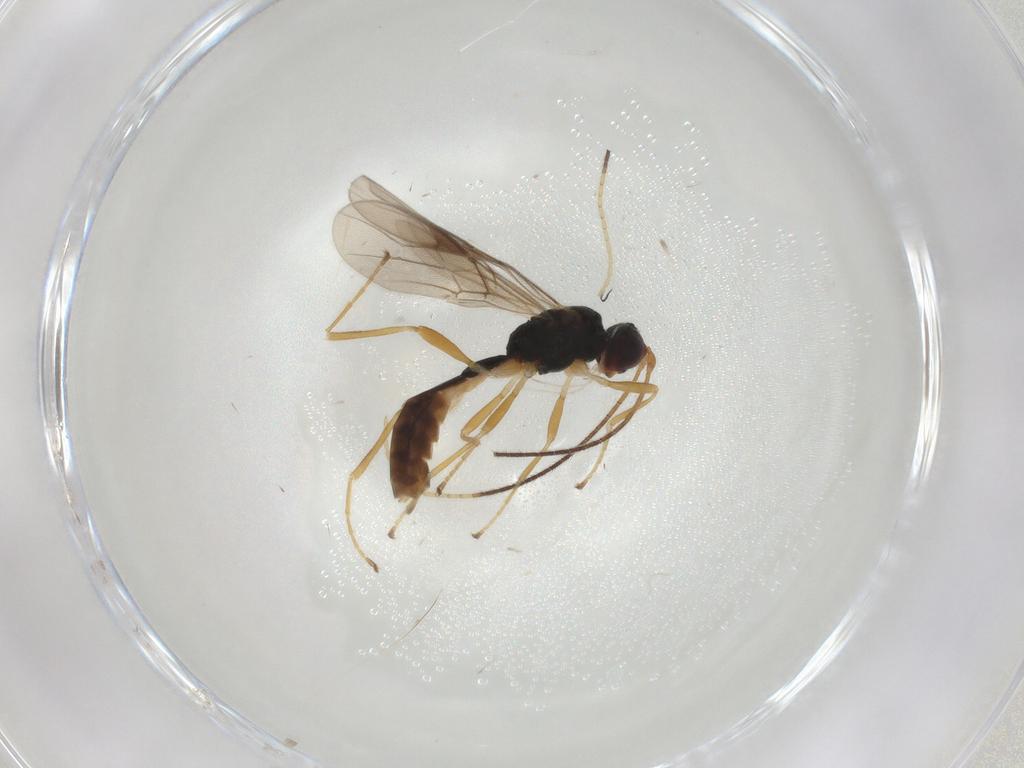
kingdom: Animalia
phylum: Arthropoda
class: Insecta
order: Hymenoptera
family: Braconidae
